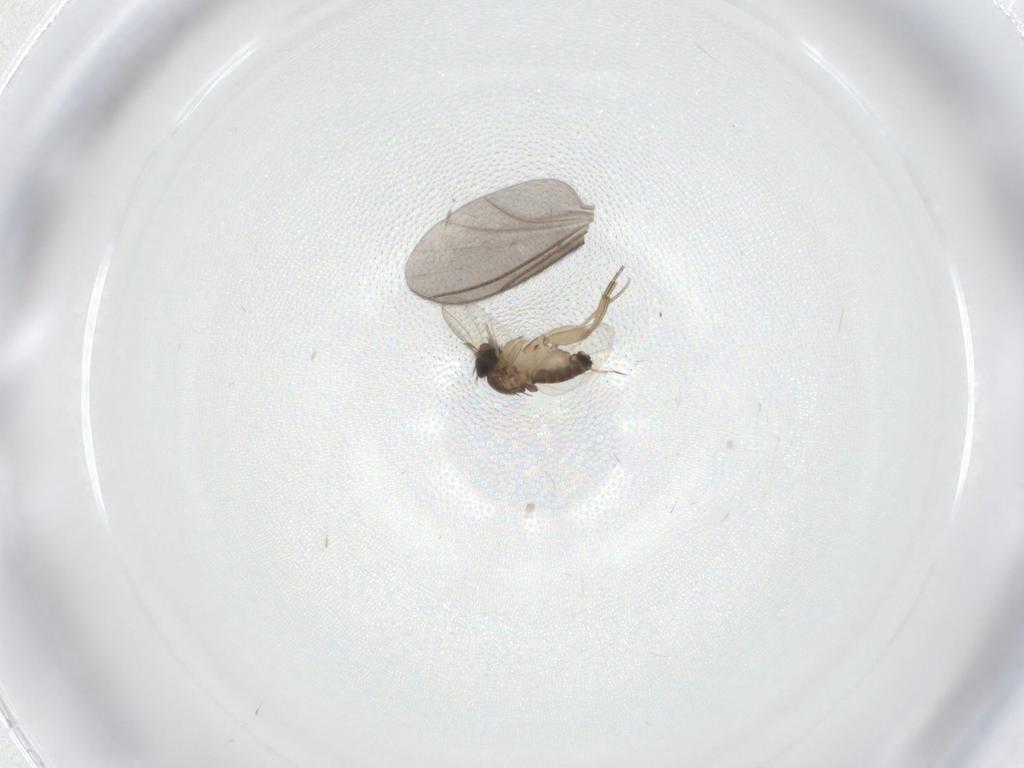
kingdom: Animalia
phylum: Arthropoda
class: Insecta
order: Diptera
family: Sciaridae
